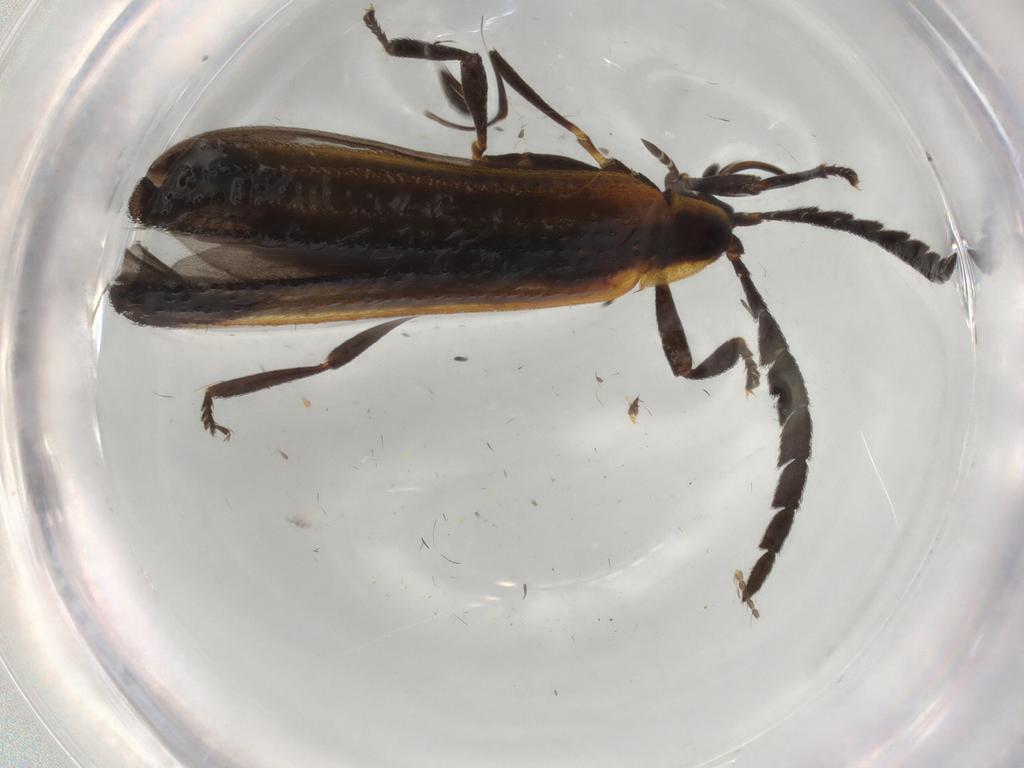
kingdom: Animalia
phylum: Arthropoda
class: Insecta
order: Coleoptera
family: Lycidae
